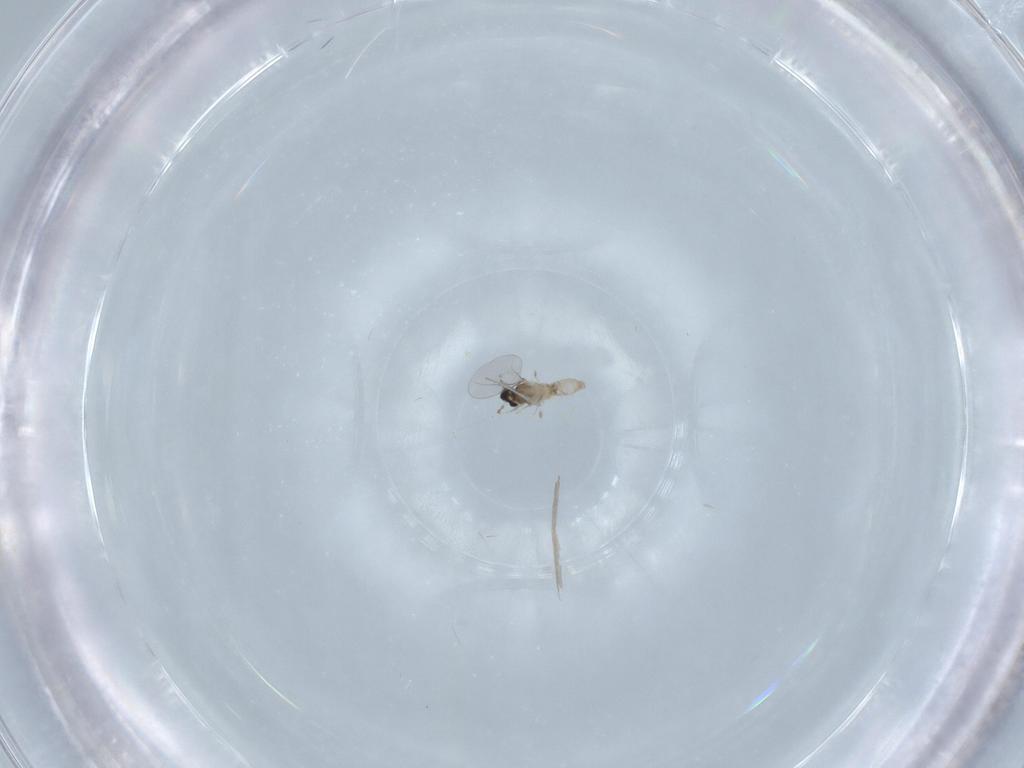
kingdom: Animalia
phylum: Arthropoda
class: Insecta
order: Diptera
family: Cecidomyiidae
